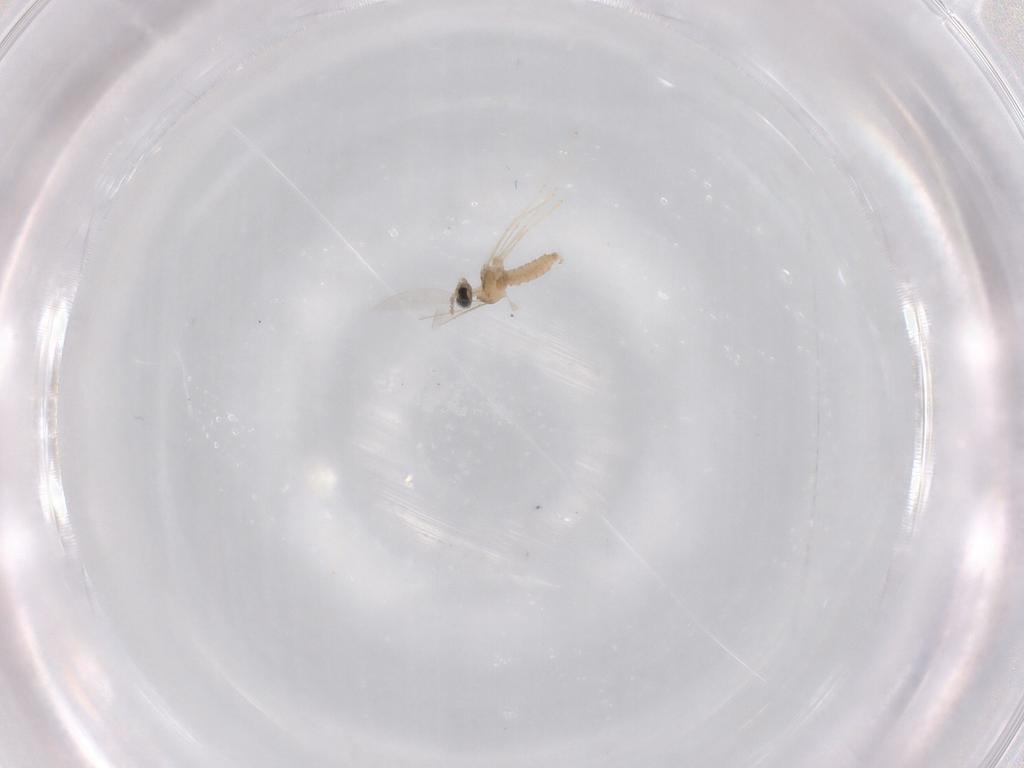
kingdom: Animalia
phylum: Arthropoda
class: Insecta
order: Diptera
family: Cecidomyiidae
